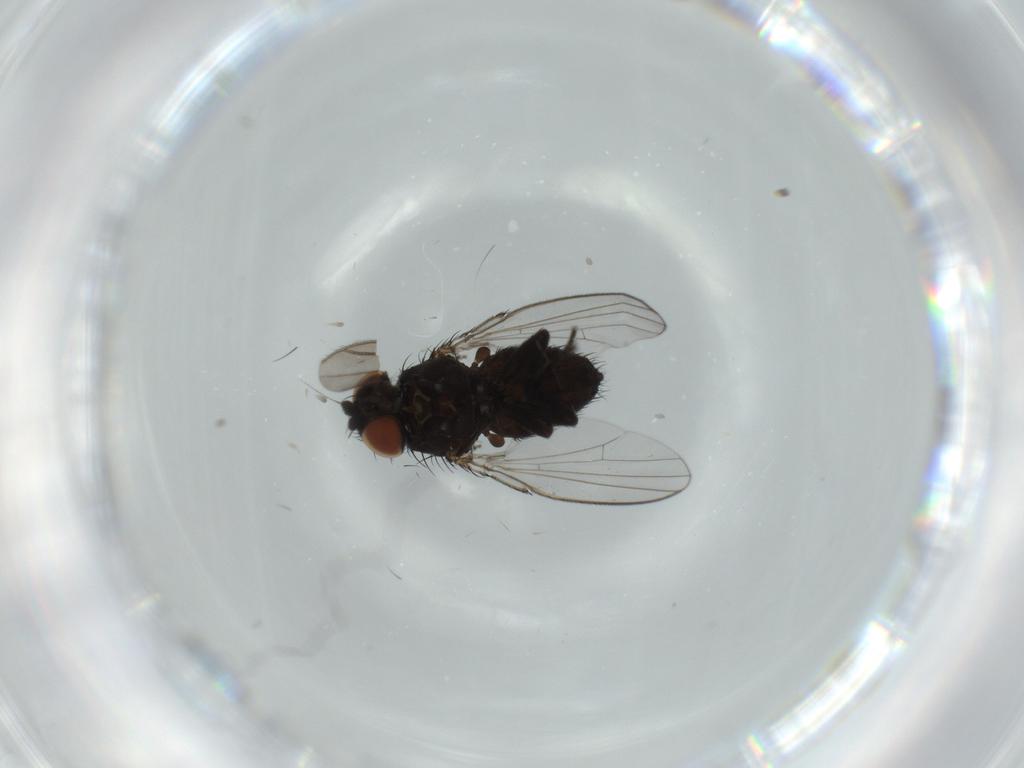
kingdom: Animalia
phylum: Arthropoda
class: Insecta
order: Diptera
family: Milichiidae
